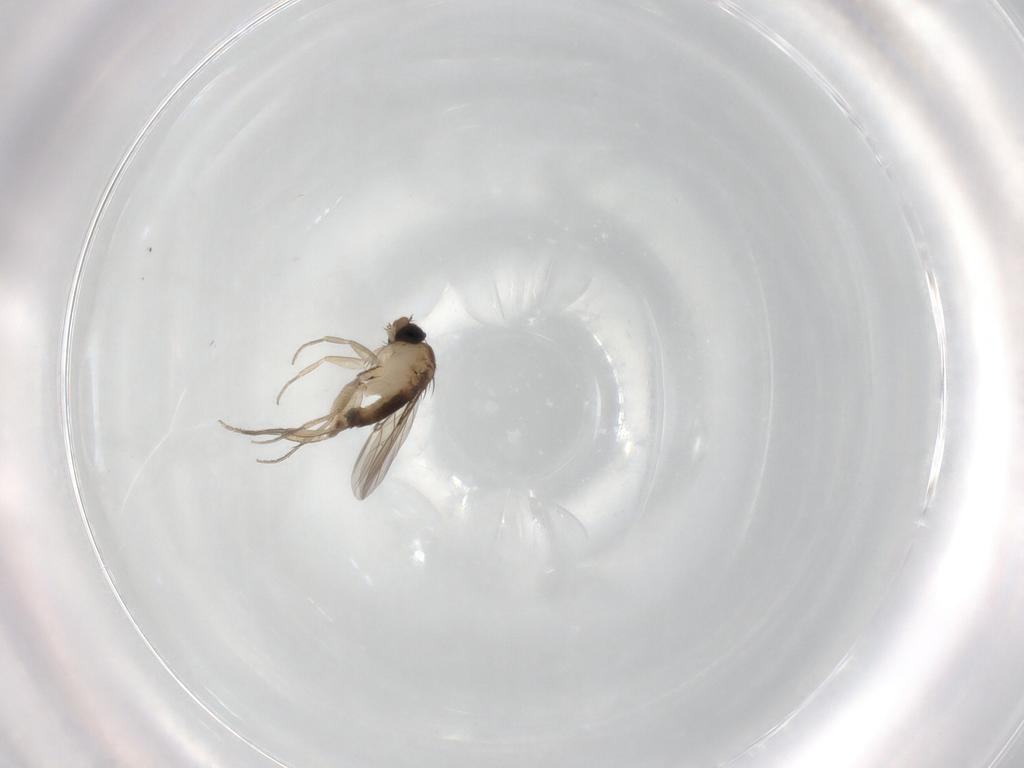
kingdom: Animalia
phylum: Arthropoda
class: Insecta
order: Diptera
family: Phoridae
